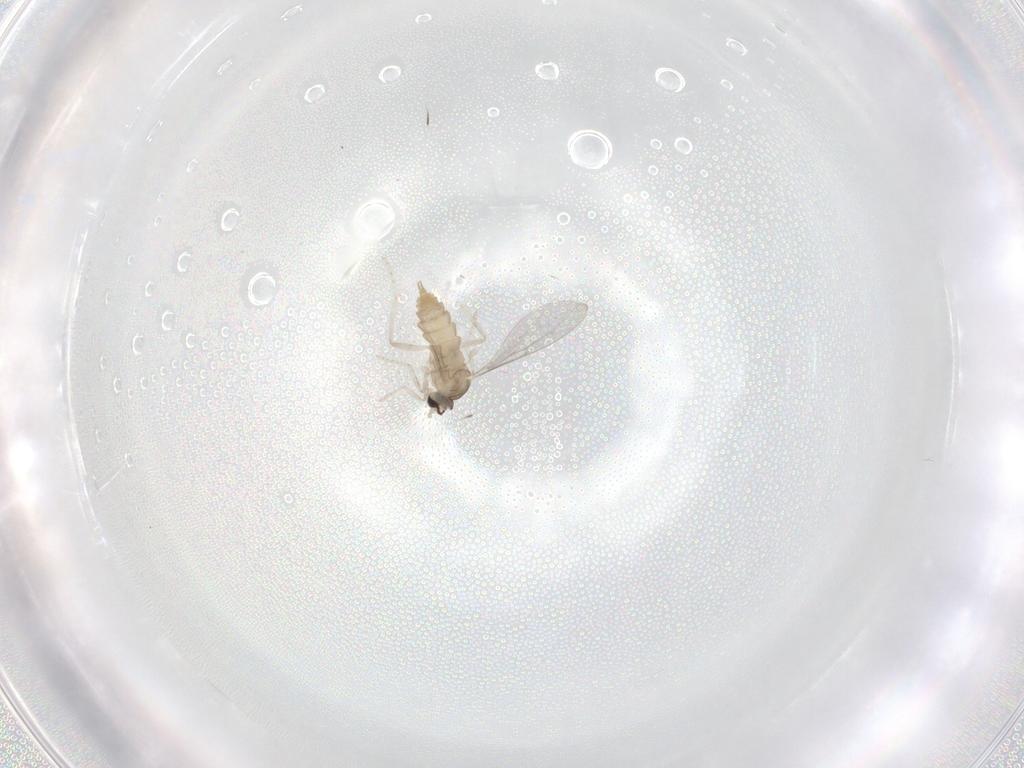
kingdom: Animalia
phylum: Arthropoda
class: Insecta
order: Diptera
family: Cecidomyiidae
